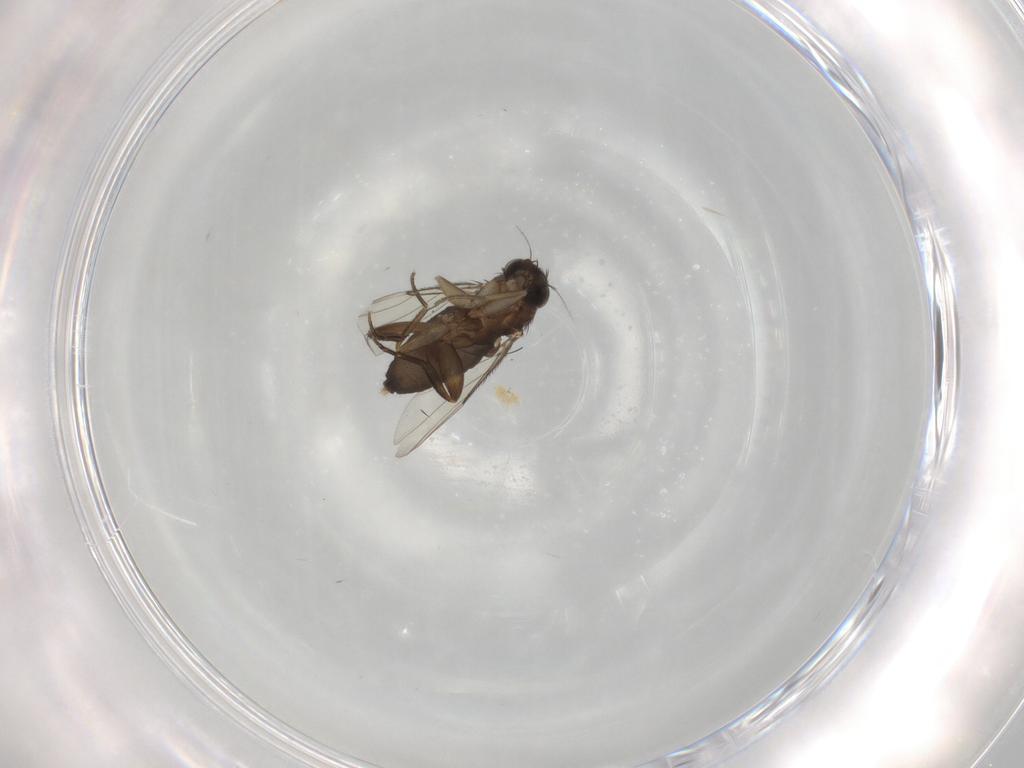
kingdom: Animalia
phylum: Arthropoda
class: Insecta
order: Diptera
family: Phoridae
